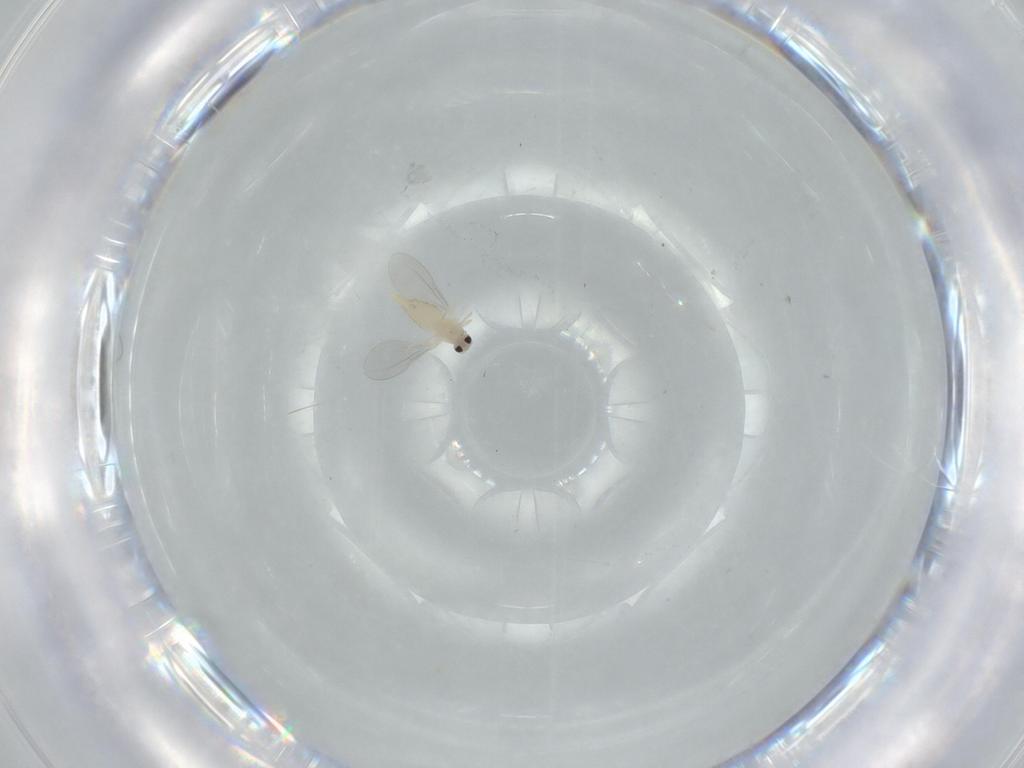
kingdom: Animalia
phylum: Arthropoda
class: Insecta
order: Diptera
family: Cecidomyiidae
